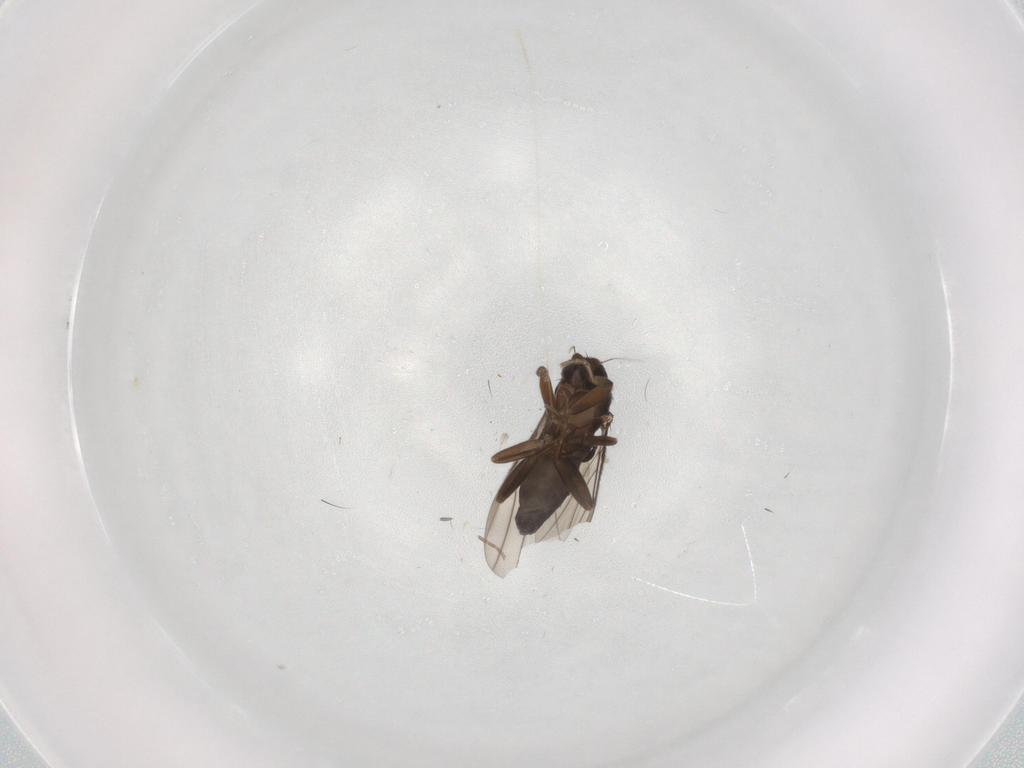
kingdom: Animalia
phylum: Arthropoda
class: Insecta
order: Diptera
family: Phoridae
